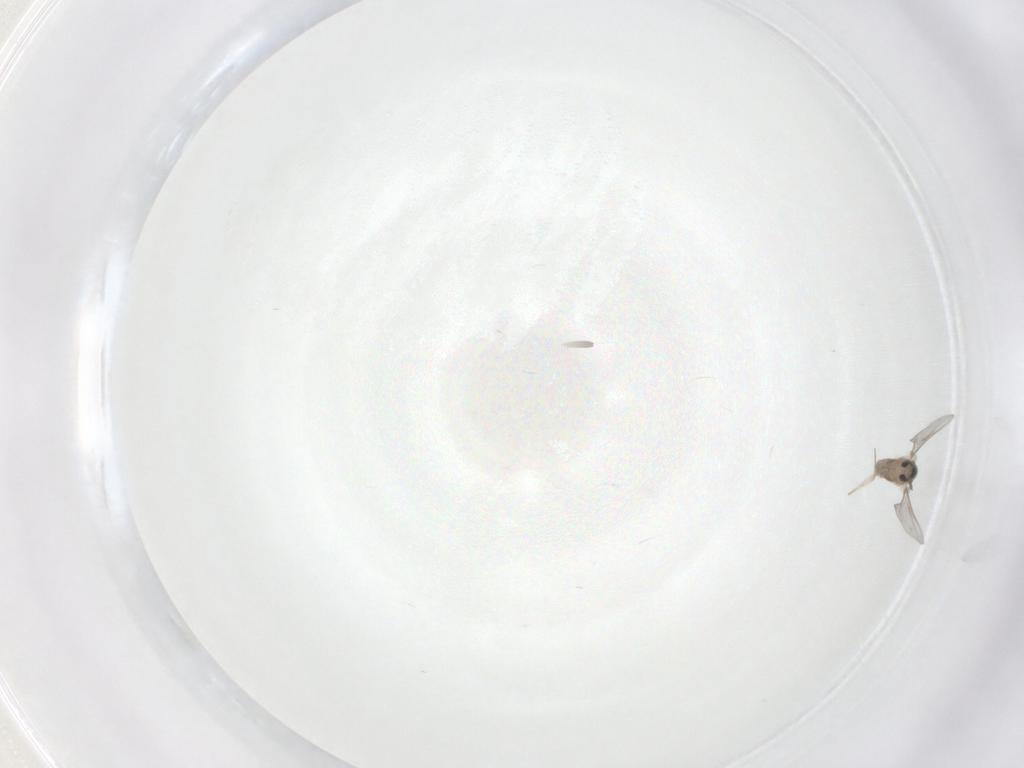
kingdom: Animalia
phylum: Arthropoda
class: Insecta
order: Diptera
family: Cecidomyiidae
